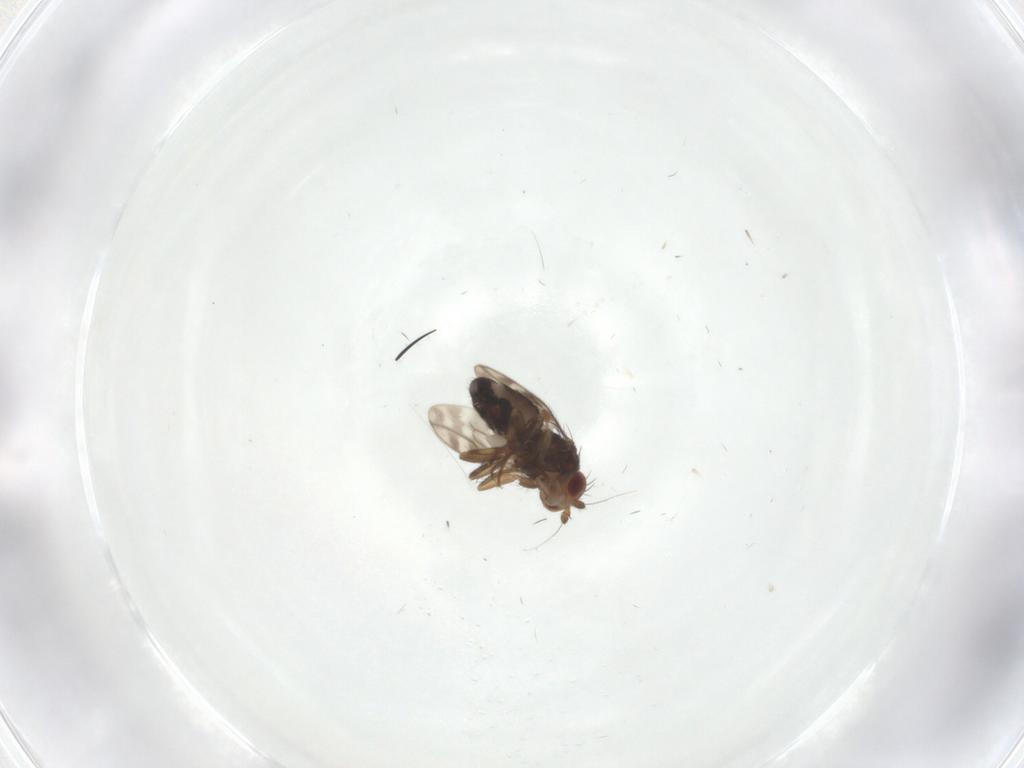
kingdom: Animalia
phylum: Arthropoda
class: Insecta
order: Diptera
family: Sphaeroceridae
